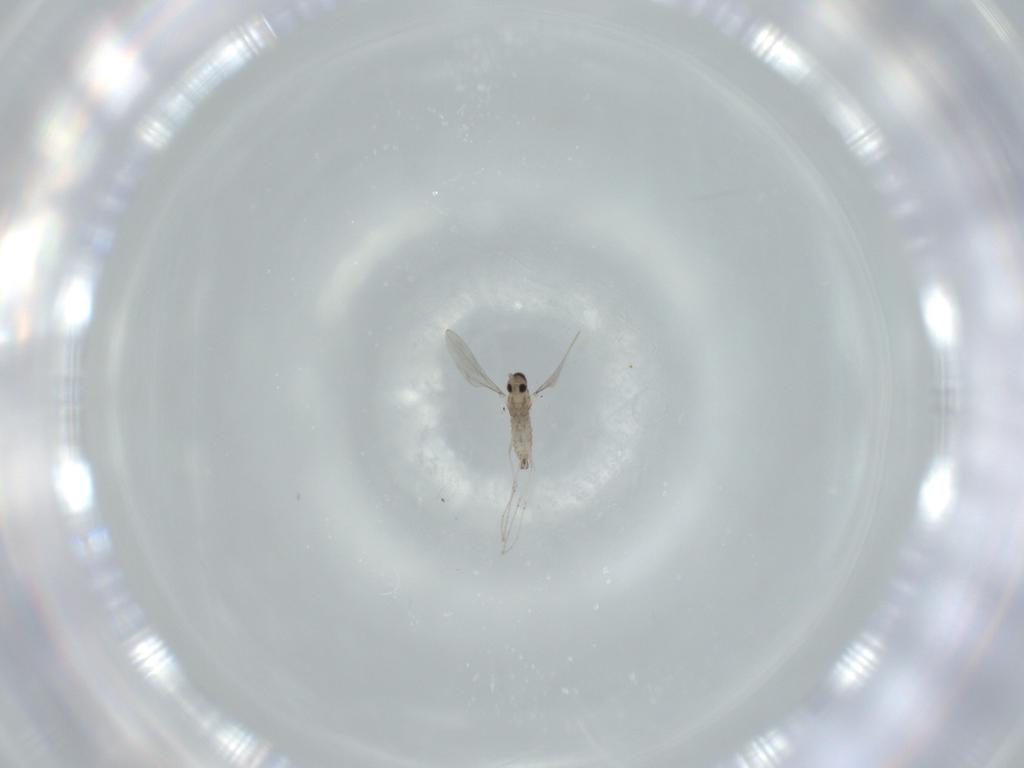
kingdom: Animalia
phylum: Arthropoda
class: Insecta
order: Diptera
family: Cecidomyiidae
